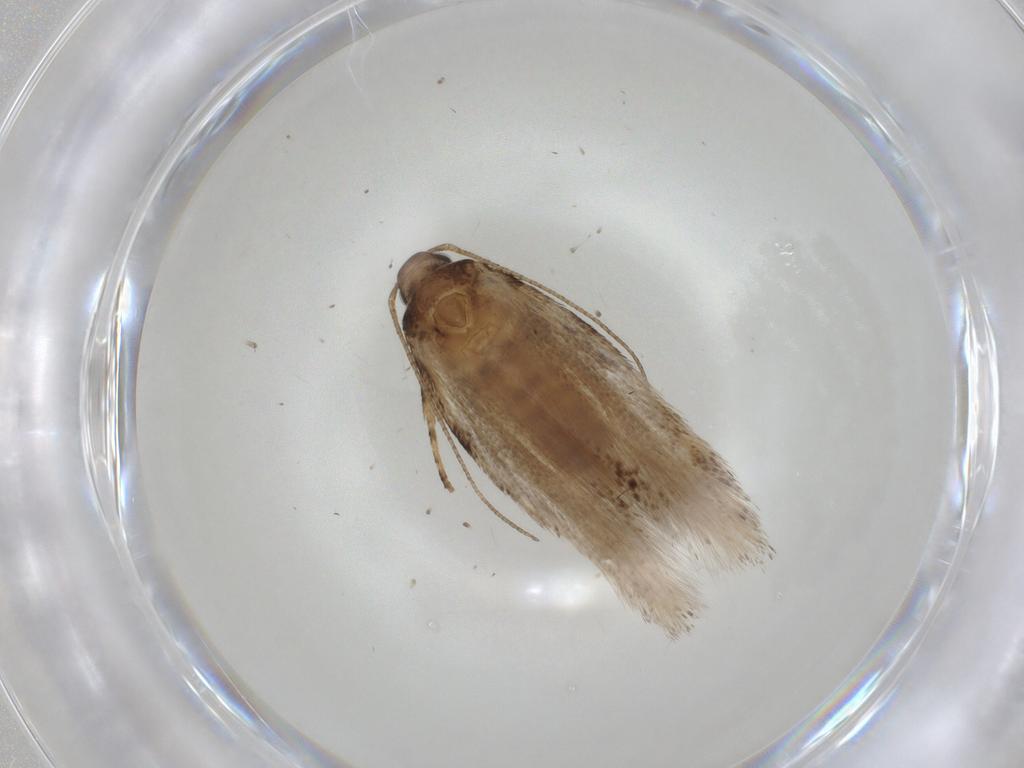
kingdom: Animalia
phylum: Arthropoda
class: Insecta
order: Lepidoptera
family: Gelechiidae
